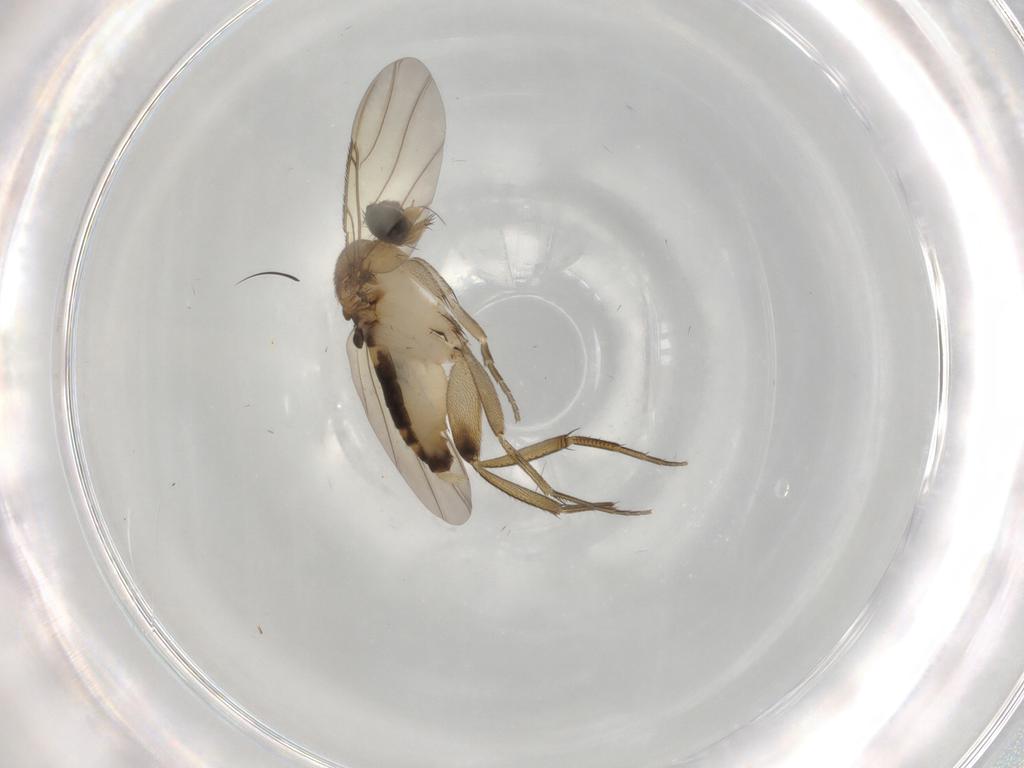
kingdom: Animalia
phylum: Arthropoda
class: Insecta
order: Diptera
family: Phoridae
